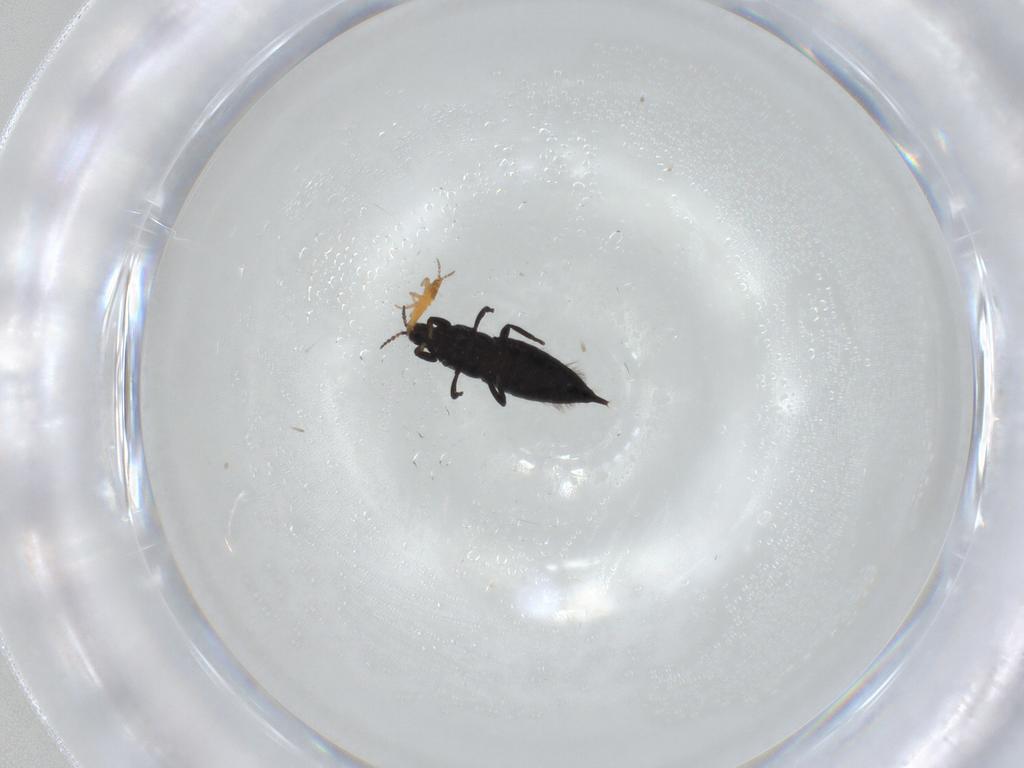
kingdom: Animalia
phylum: Arthropoda
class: Insecta
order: Thysanoptera
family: Phlaeothripidae
